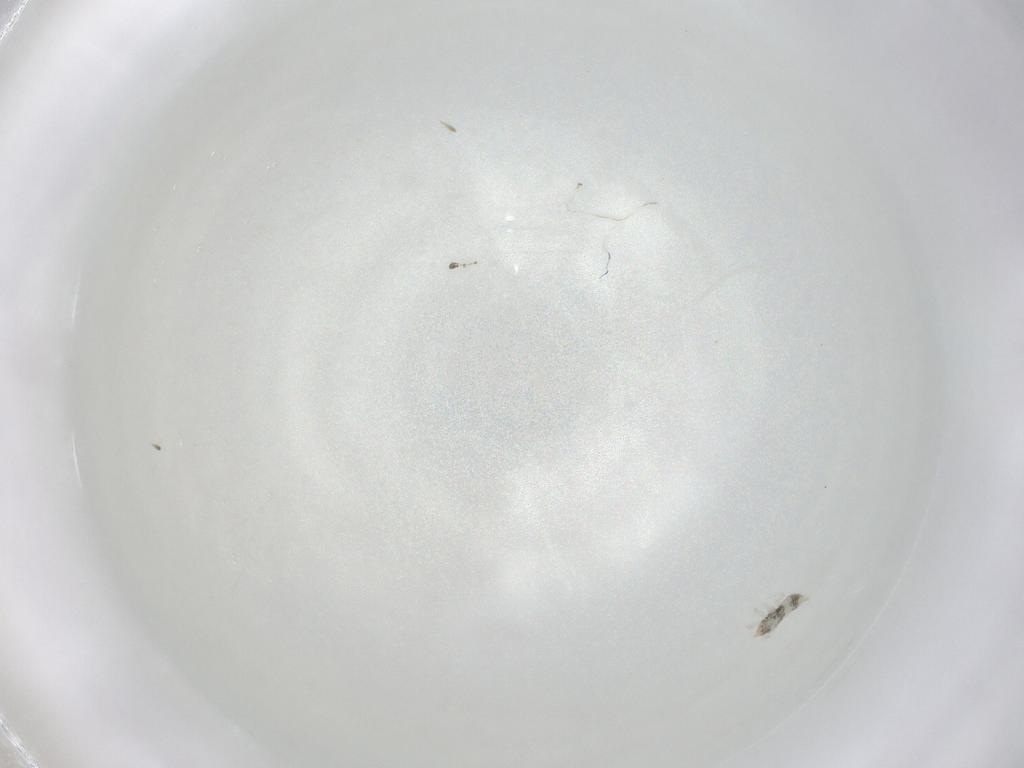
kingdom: Animalia
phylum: Arthropoda
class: Insecta
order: Neuroptera
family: Coniopterygidae
